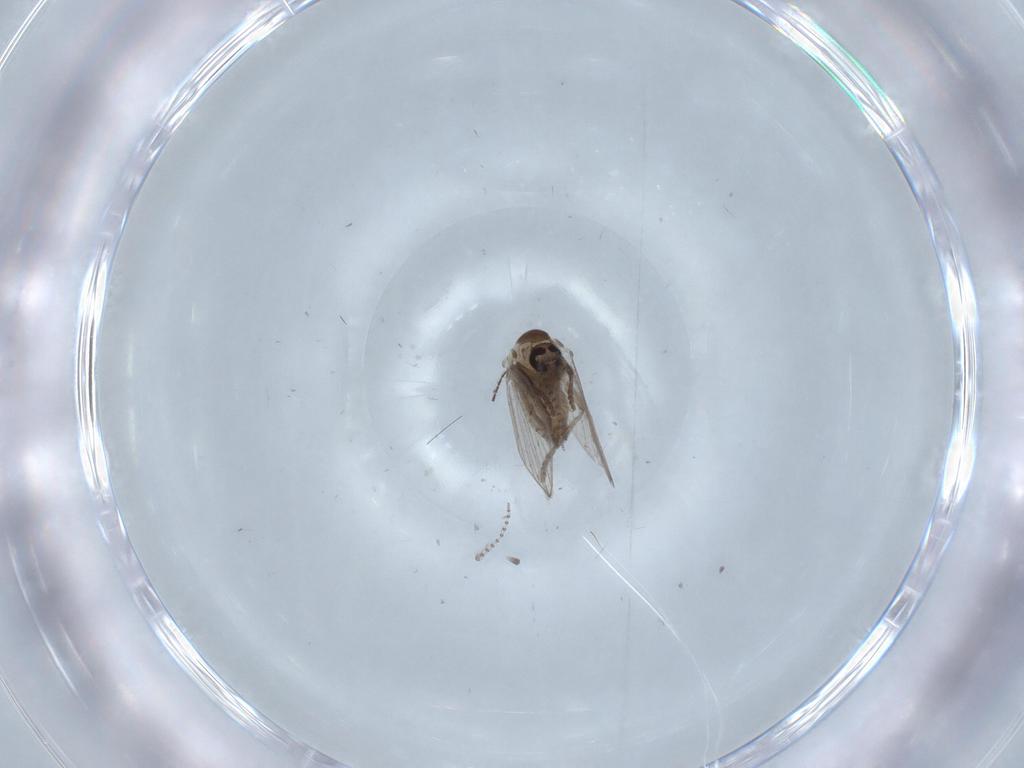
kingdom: Animalia
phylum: Arthropoda
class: Insecta
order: Diptera
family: Psychodidae
